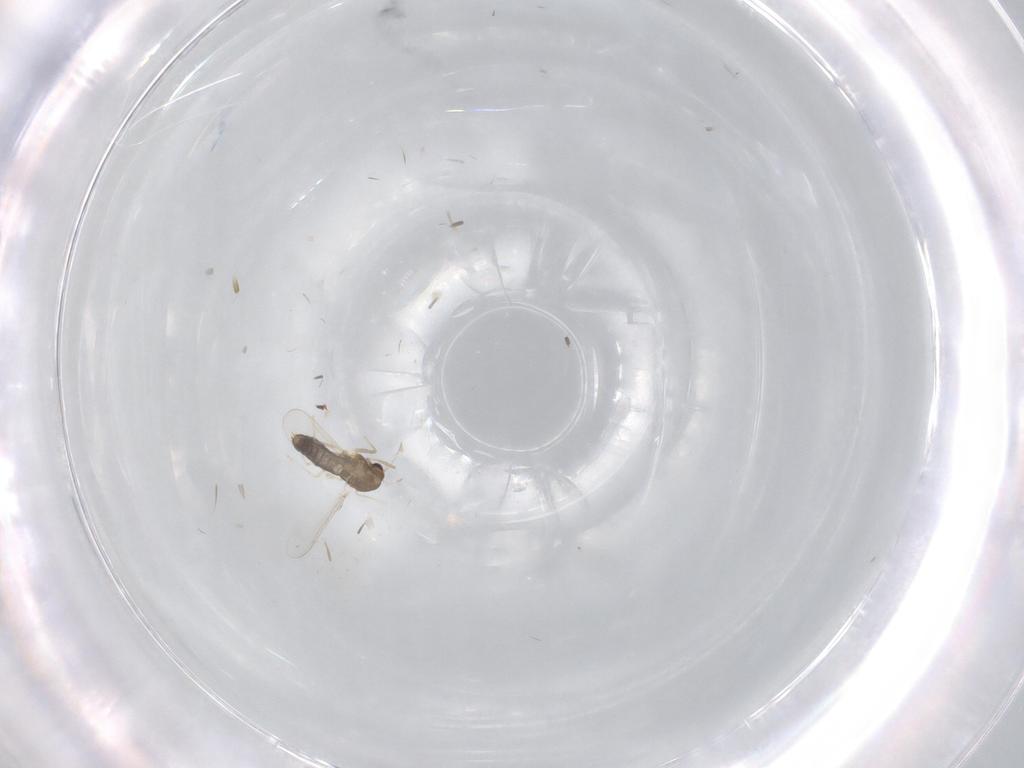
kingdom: Animalia
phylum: Arthropoda
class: Insecta
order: Diptera
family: Chironomidae
